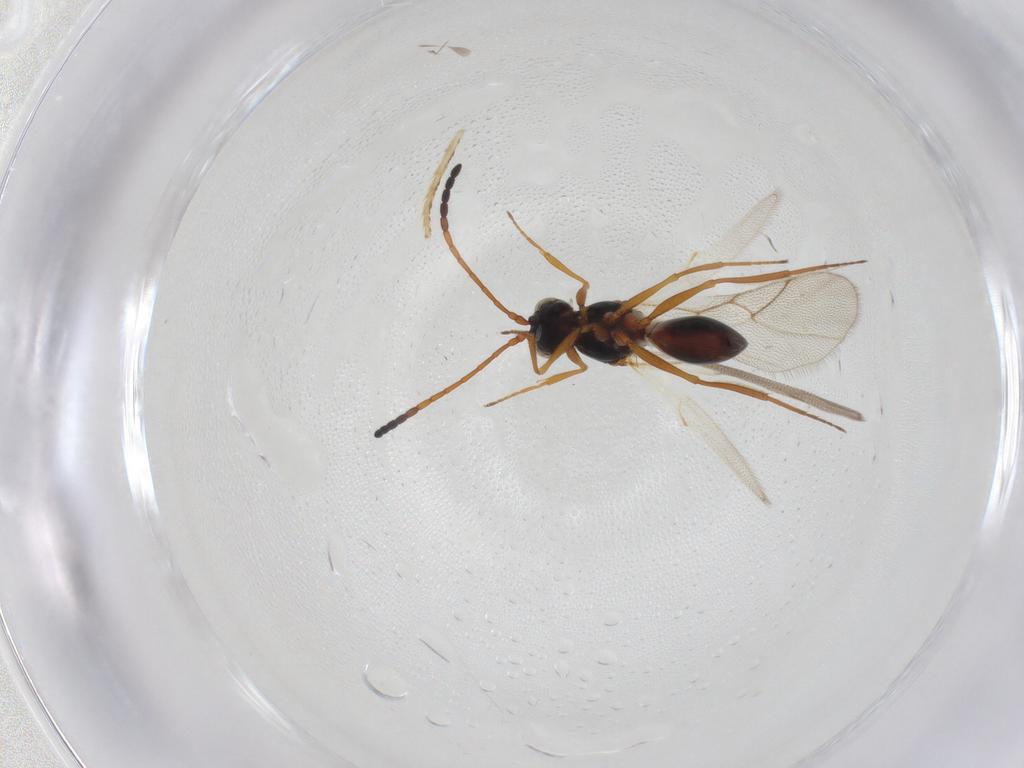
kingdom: Animalia
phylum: Arthropoda
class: Insecta
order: Hymenoptera
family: Figitidae
